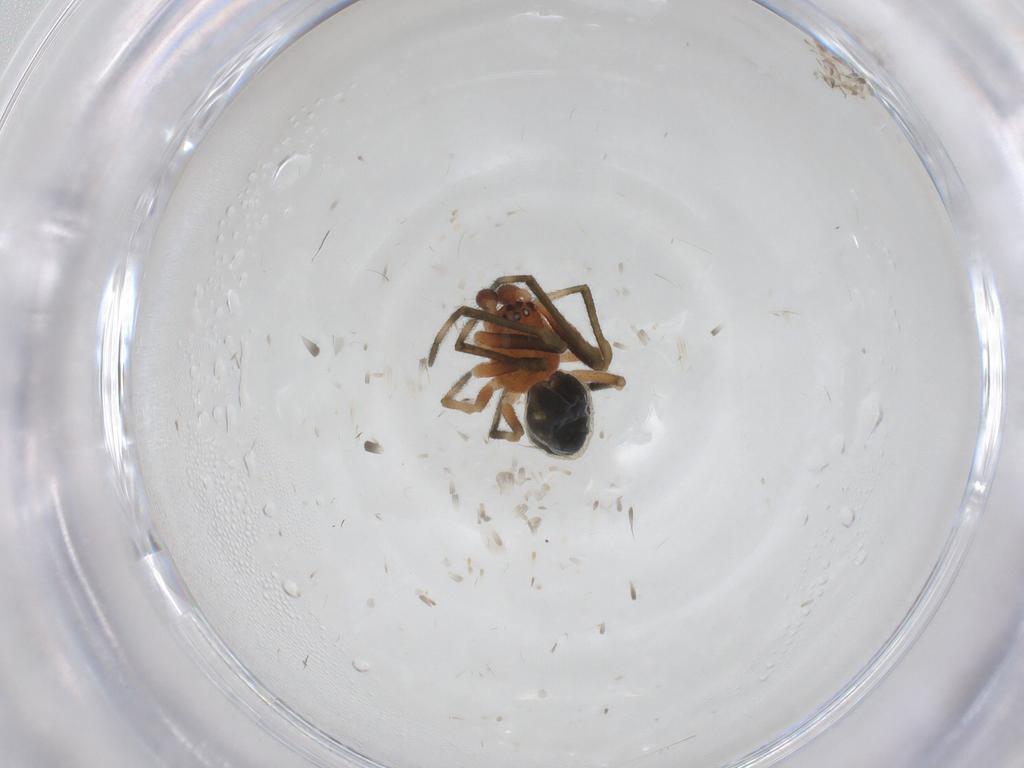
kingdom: Animalia
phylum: Arthropoda
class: Arachnida
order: Araneae
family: Theridiidae
